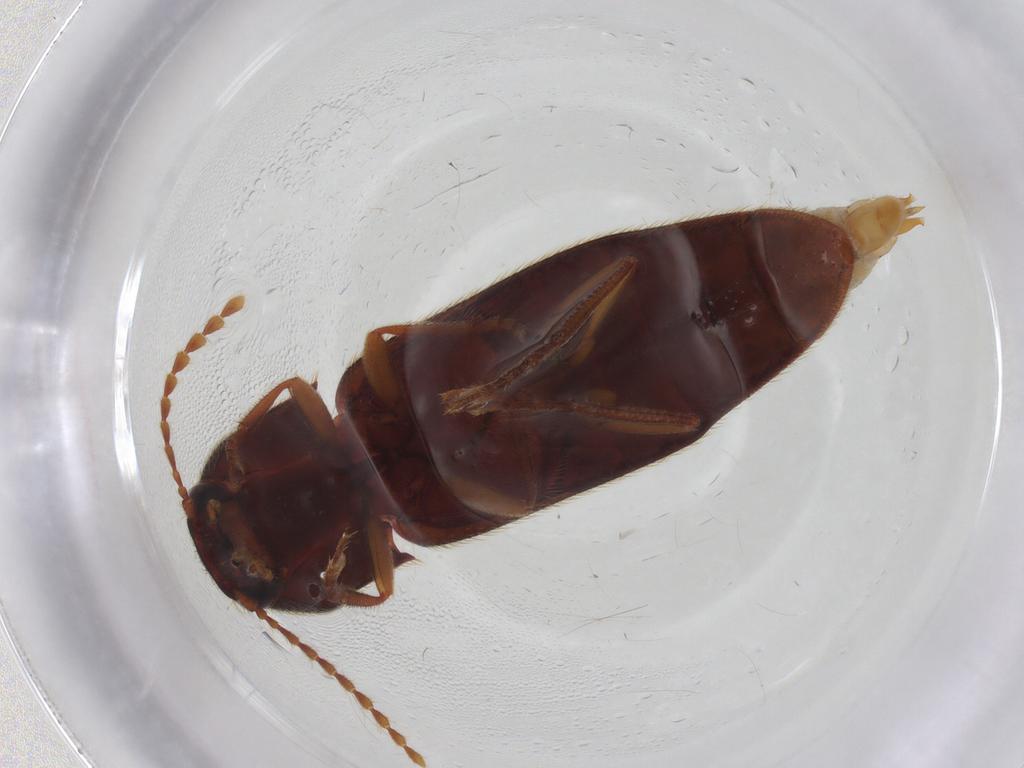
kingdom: Animalia
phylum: Arthropoda
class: Insecta
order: Coleoptera
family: Elateridae
